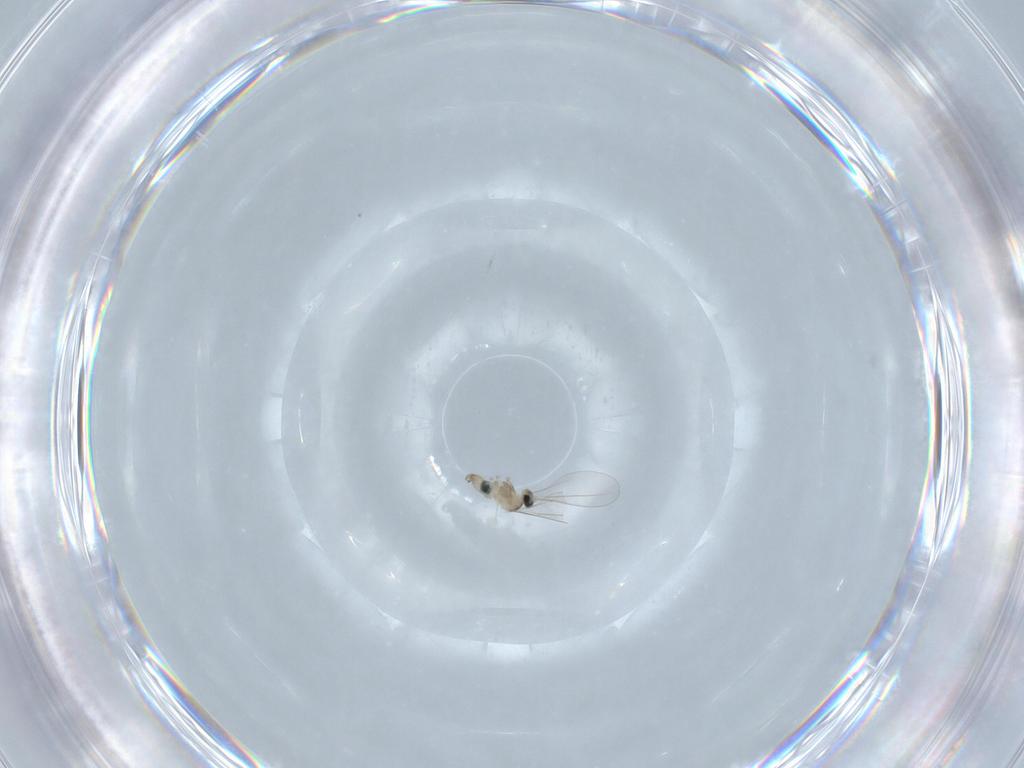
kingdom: Animalia
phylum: Arthropoda
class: Insecta
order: Diptera
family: Cecidomyiidae
